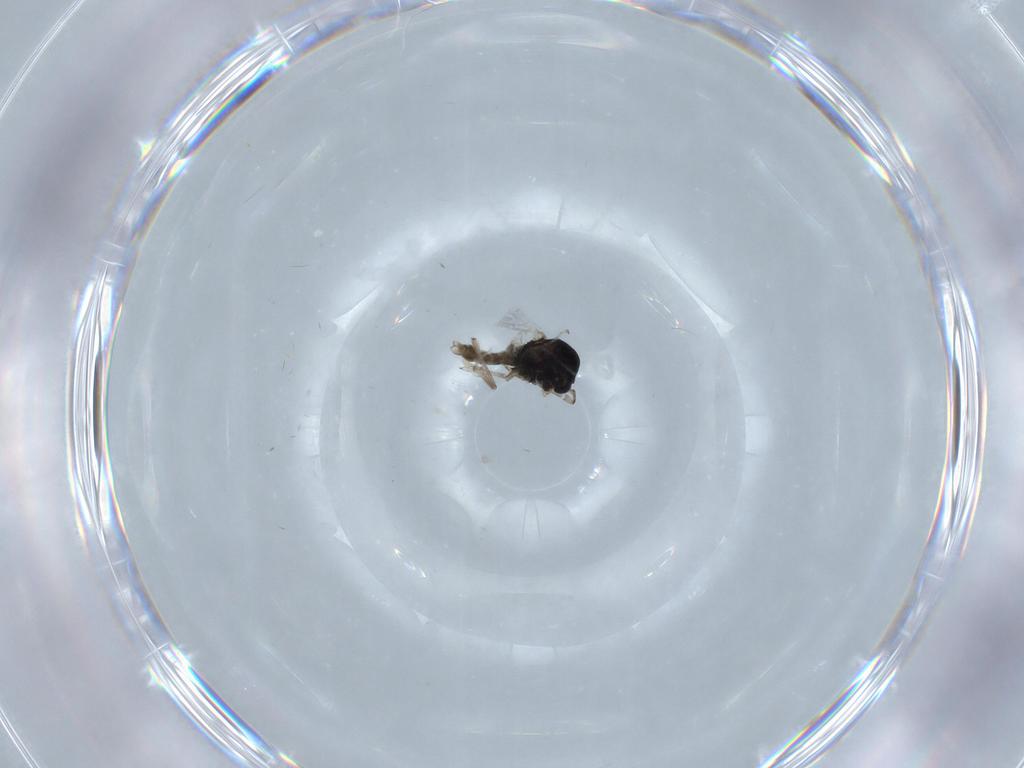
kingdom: Animalia
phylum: Arthropoda
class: Insecta
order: Diptera
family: Chironomidae
